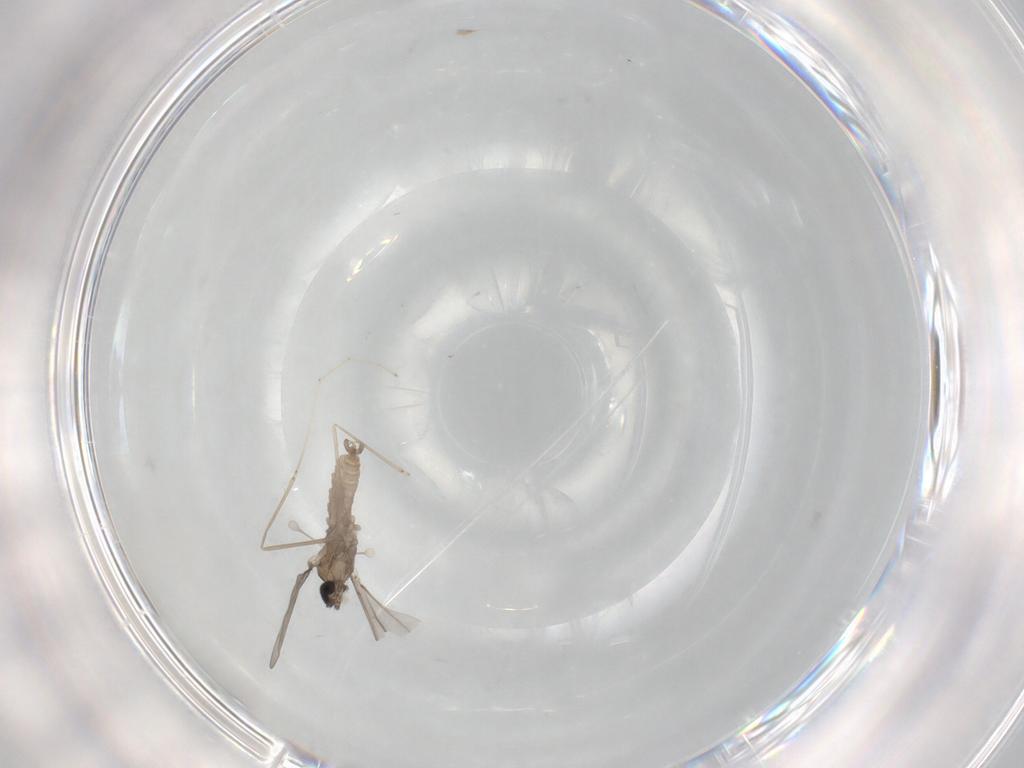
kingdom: Animalia
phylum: Arthropoda
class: Insecta
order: Diptera
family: Cecidomyiidae
